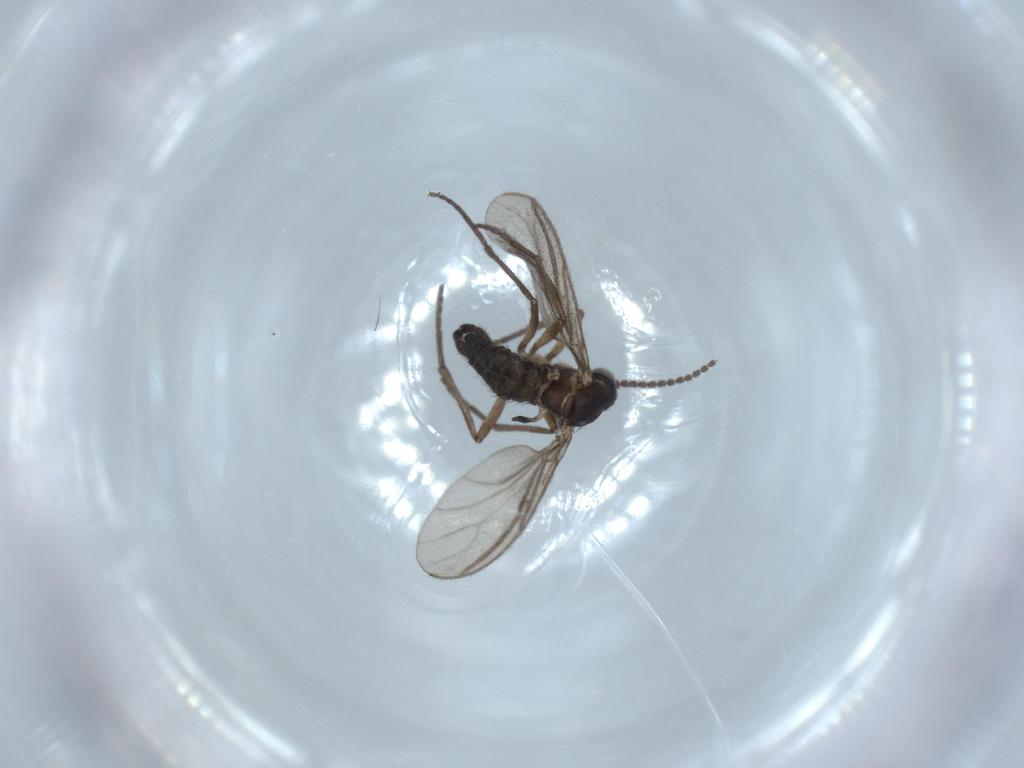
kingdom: Animalia
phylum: Arthropoda
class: Insecta
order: Diptera
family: Sciaridae
